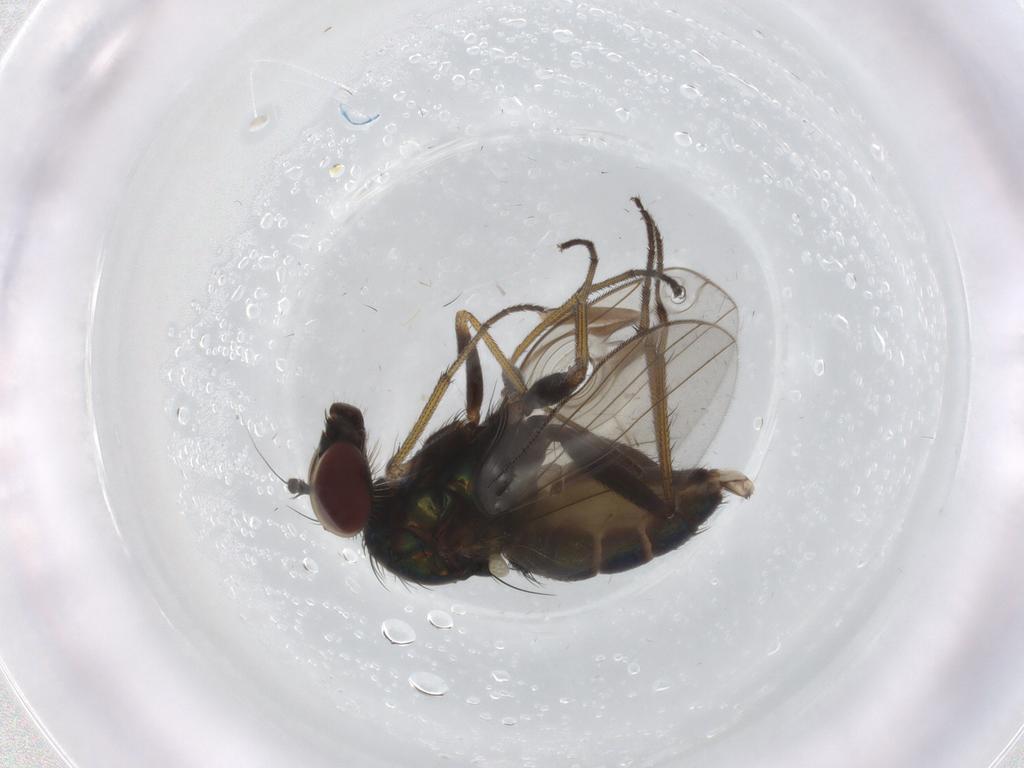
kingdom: Animalia
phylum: Arthropoda
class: Insecta
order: Diptera
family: Dolichopodidae
